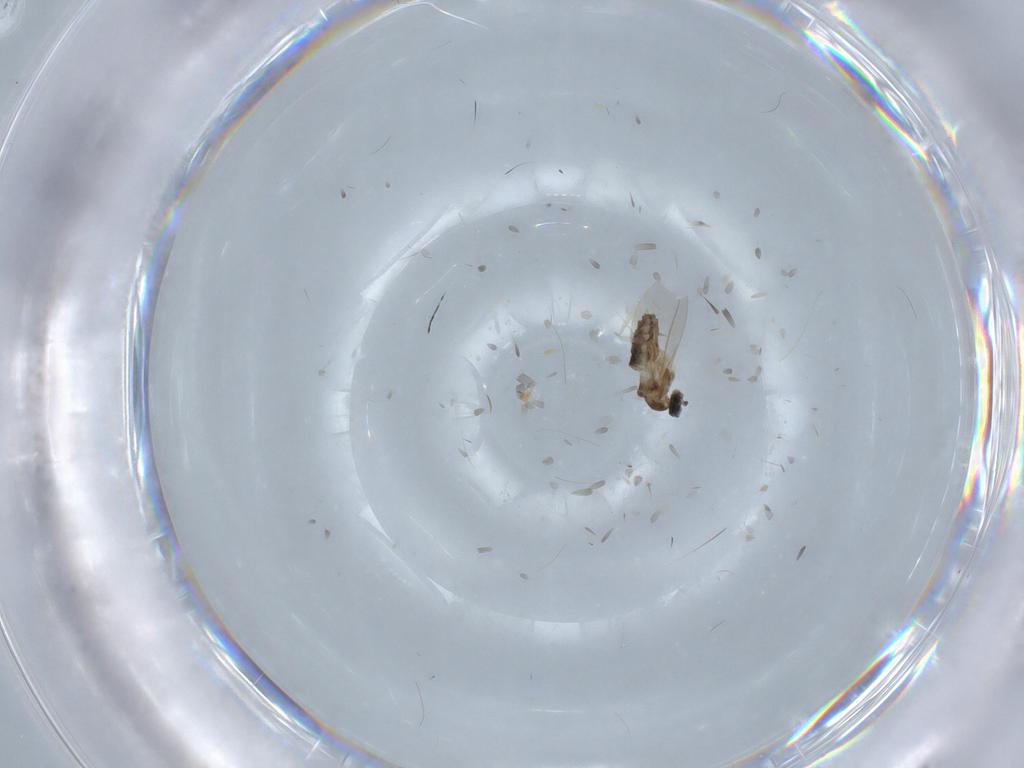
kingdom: Animalia
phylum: Arthropoda
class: Insecta
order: Diptera
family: Cecidomyiidae
